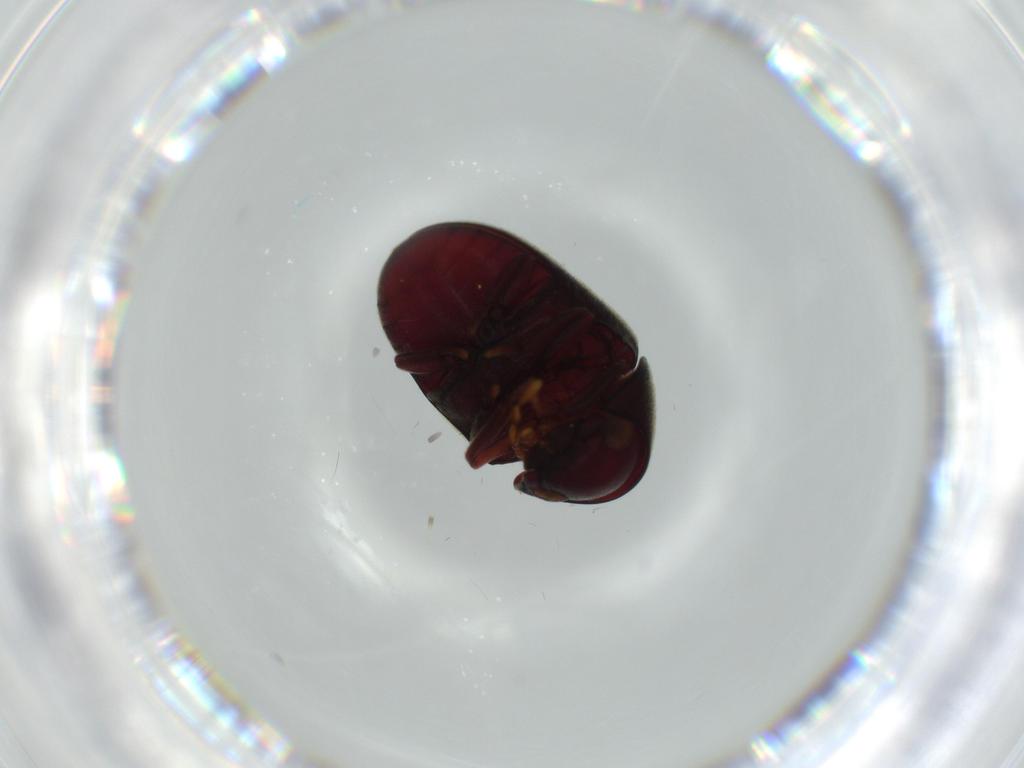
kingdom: Animalia
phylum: Arthropoda
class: Insecta
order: Coleoptera
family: Ptinidae
